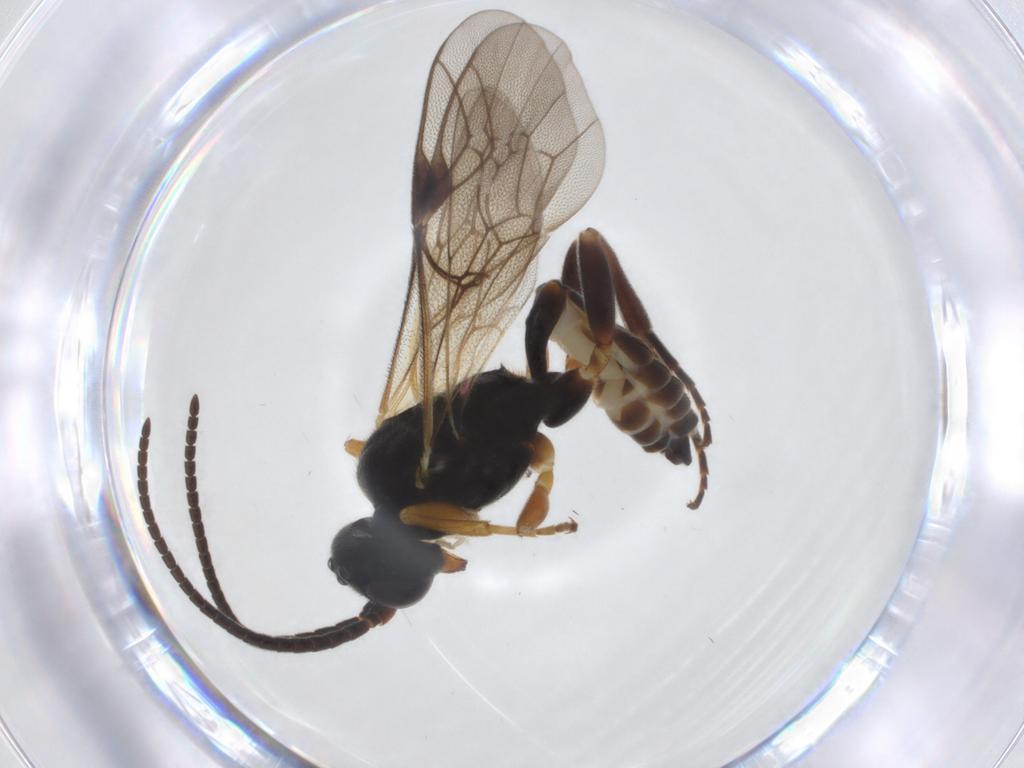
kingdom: Animalia
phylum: Arthropoda
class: Insecta
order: Hymenoptera
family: Ichneumonidae
